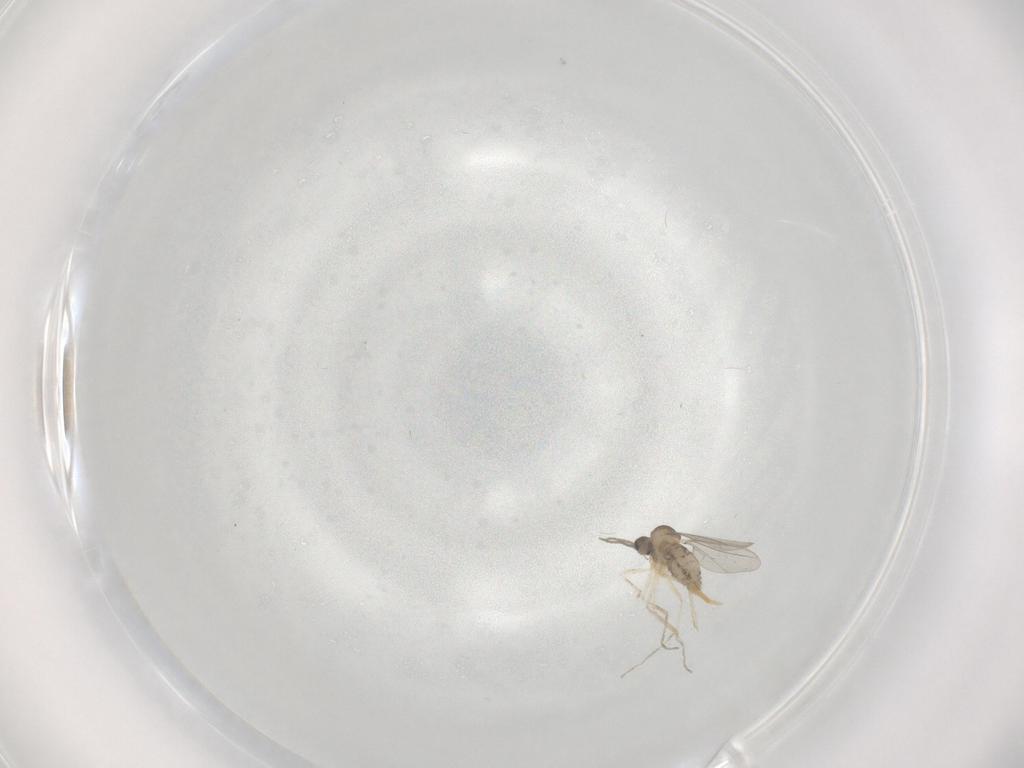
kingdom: Animalia
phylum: Arthropoda
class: Insecta
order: Diptera
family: Cecidomyiidae
